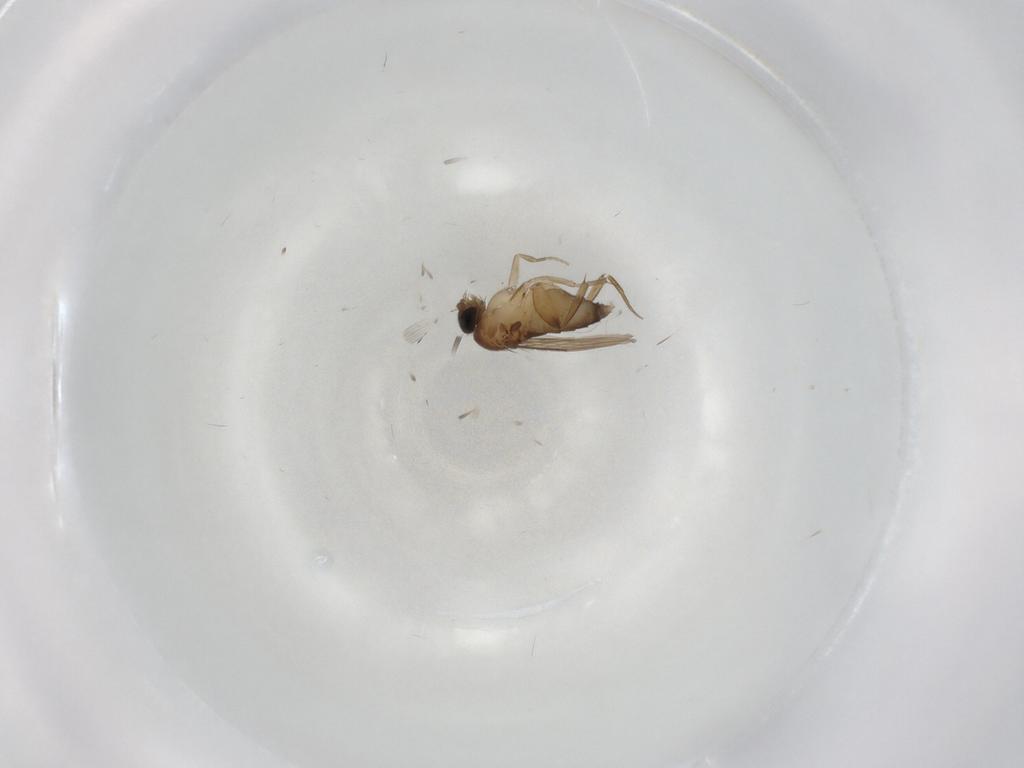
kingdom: Animalia
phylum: Arthropoda
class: Insecta
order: Diptera
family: Phoridae
